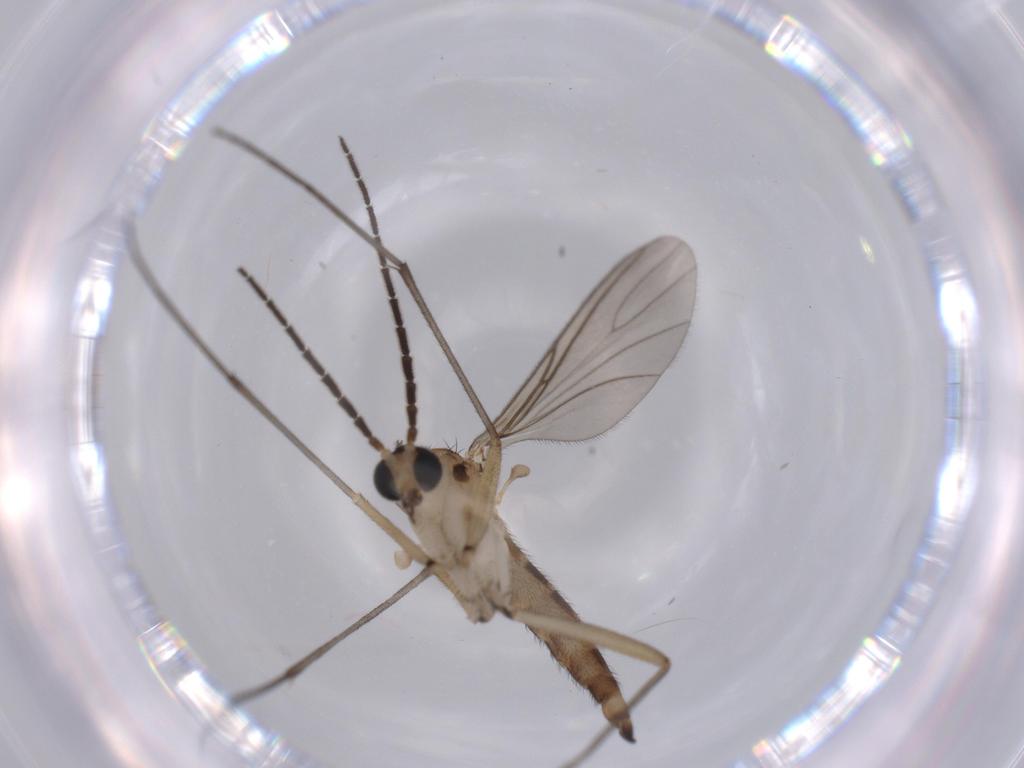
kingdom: Animalia
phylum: Arthropoda
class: Insecta
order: Diptera
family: Sciaridae
